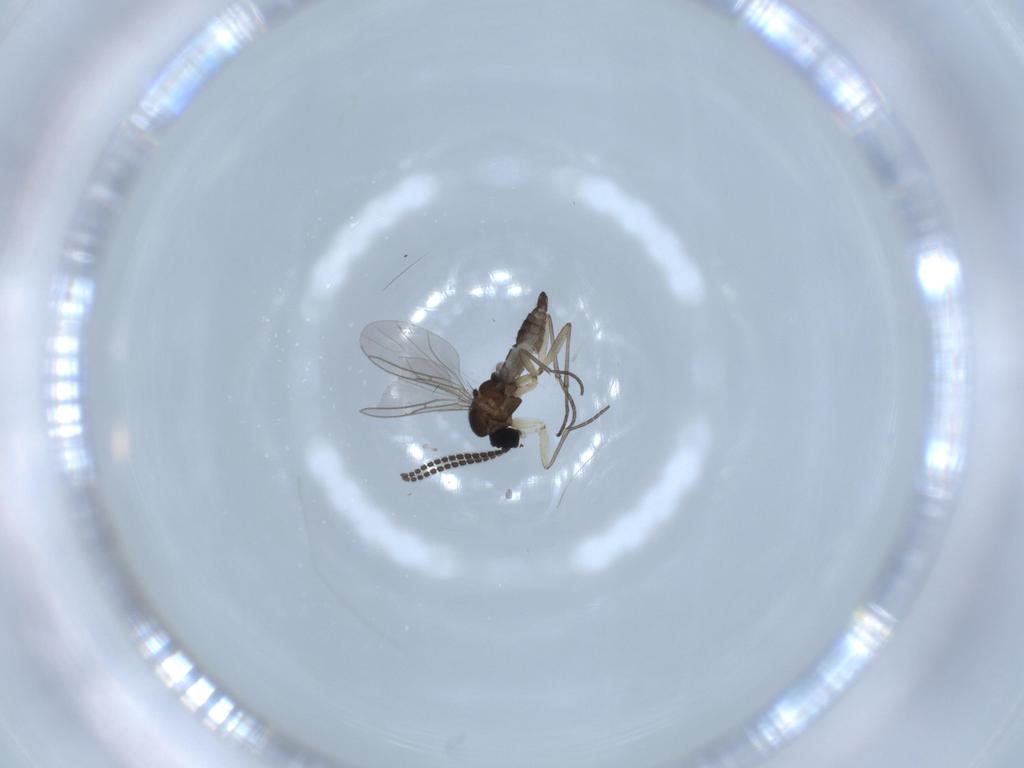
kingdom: Animalia
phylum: Arthropoda
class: Insecta
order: Diptera
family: Sciaridae
